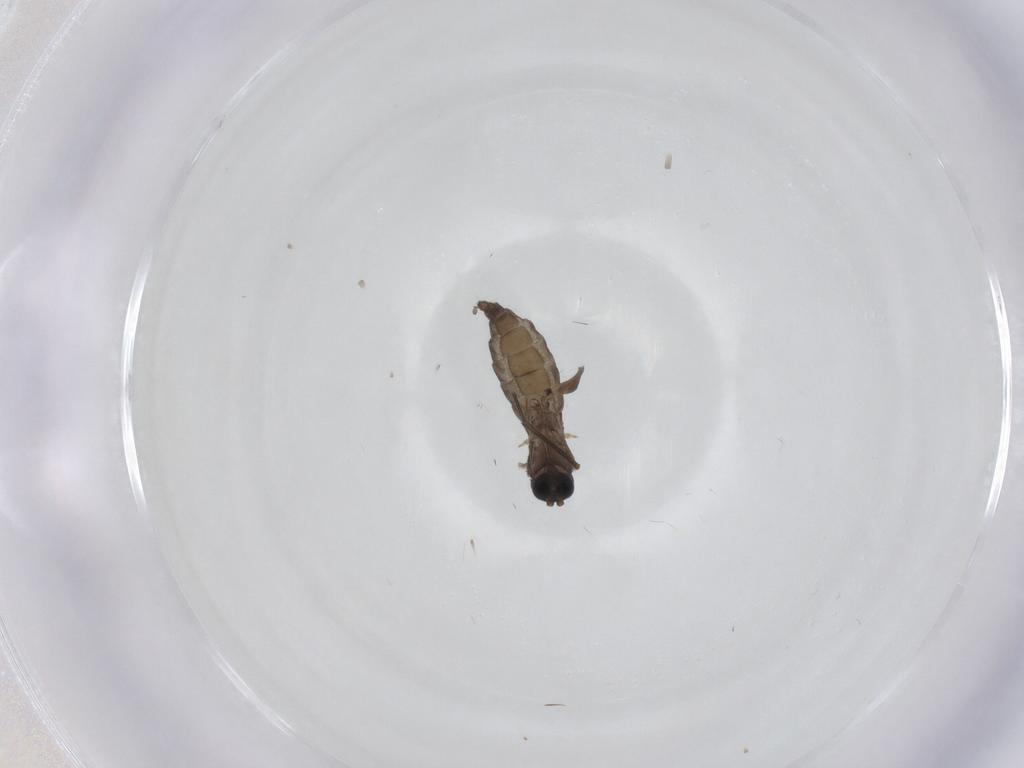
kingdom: Animalia
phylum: Arthropoda
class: Insecta
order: Diptera
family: Sciaridae
